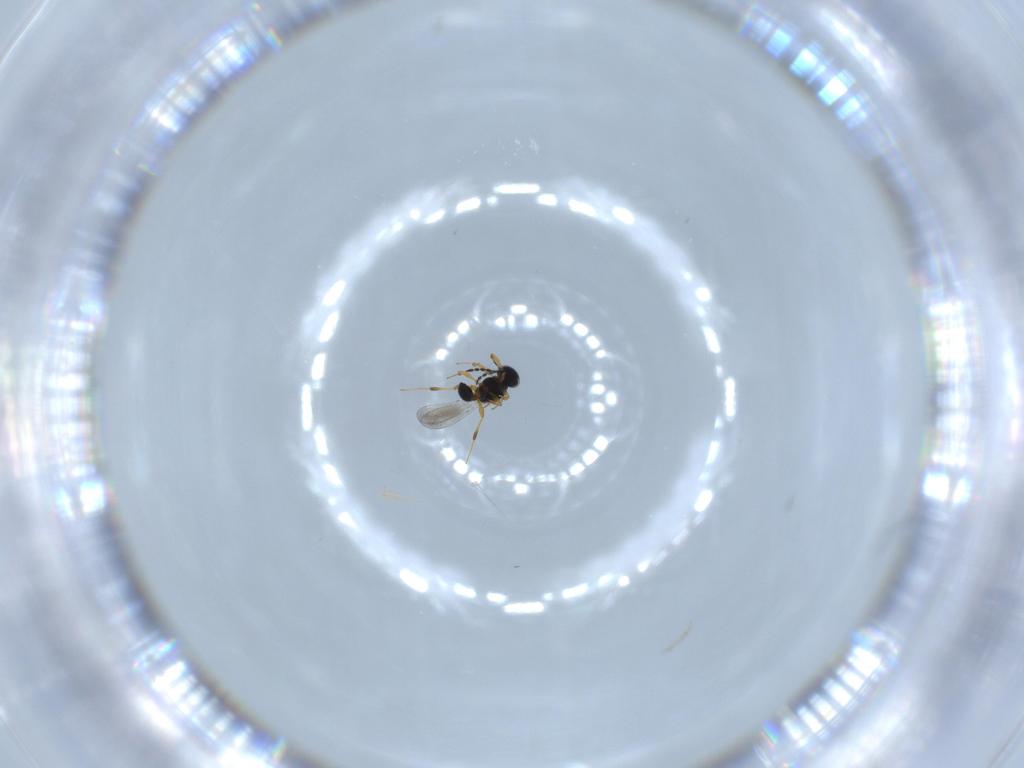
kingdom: Animalia
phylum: Arthropoda
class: Insecta
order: Hymenoptera
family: Platygastridae
